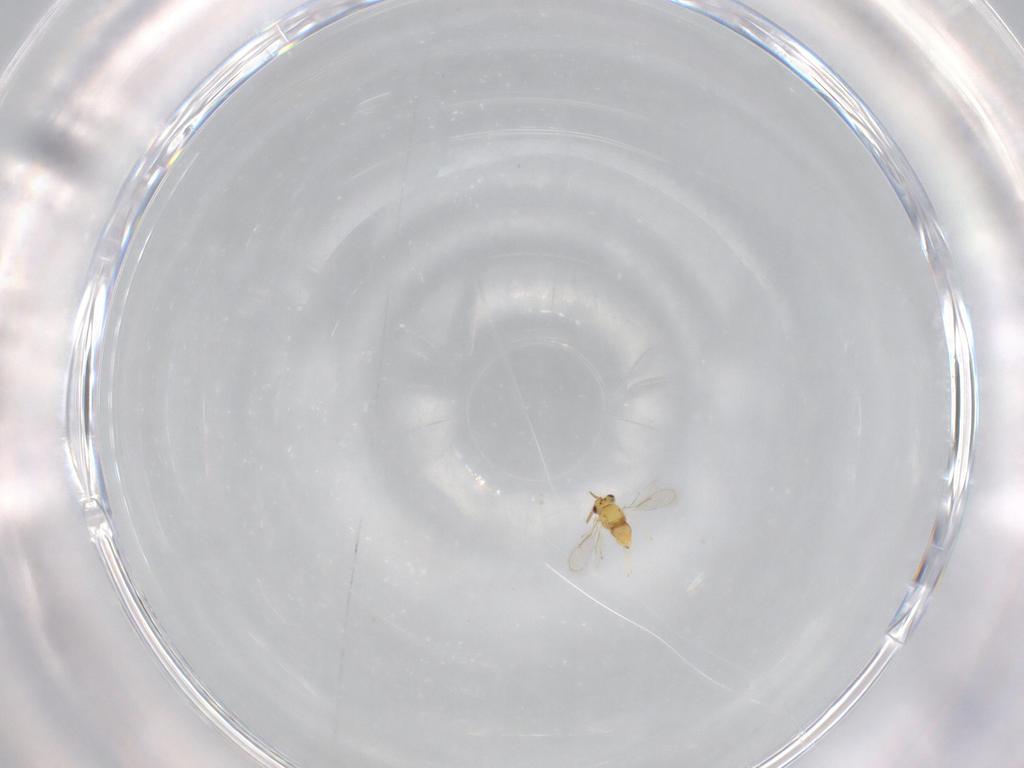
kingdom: Animalia
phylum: Arthropoda
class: Insecta
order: Hymenoptera
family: Aphelinidae
